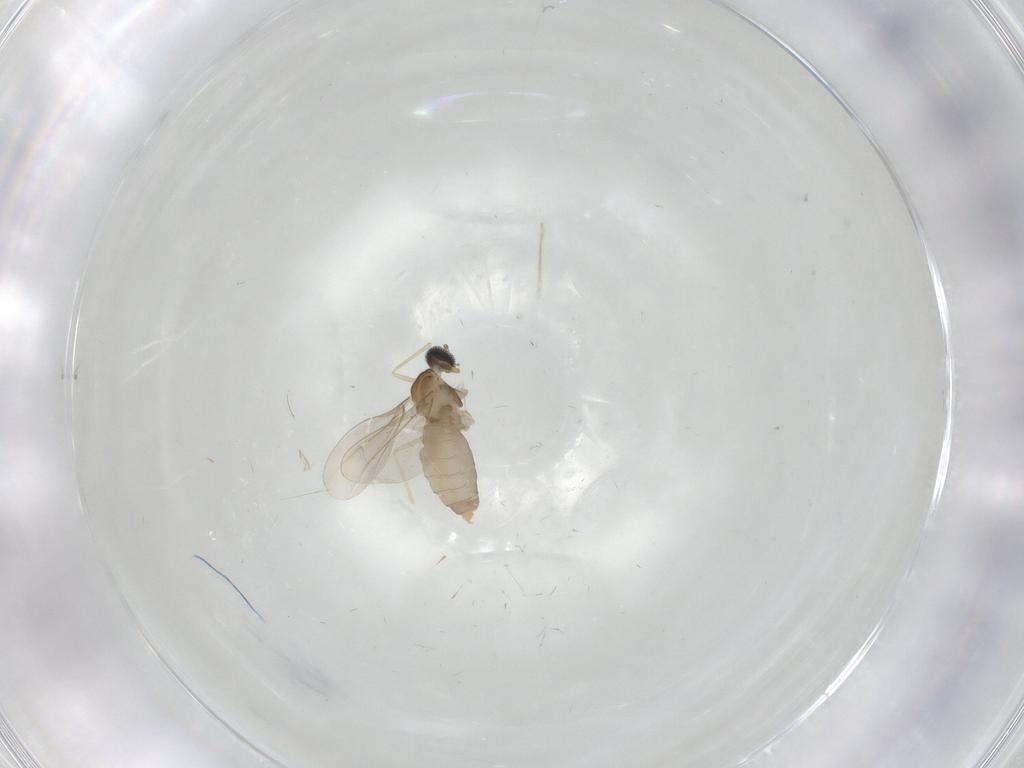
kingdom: Animalia
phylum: Arthropoda
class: Insecta
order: Diptera
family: Cecidomyiidae
